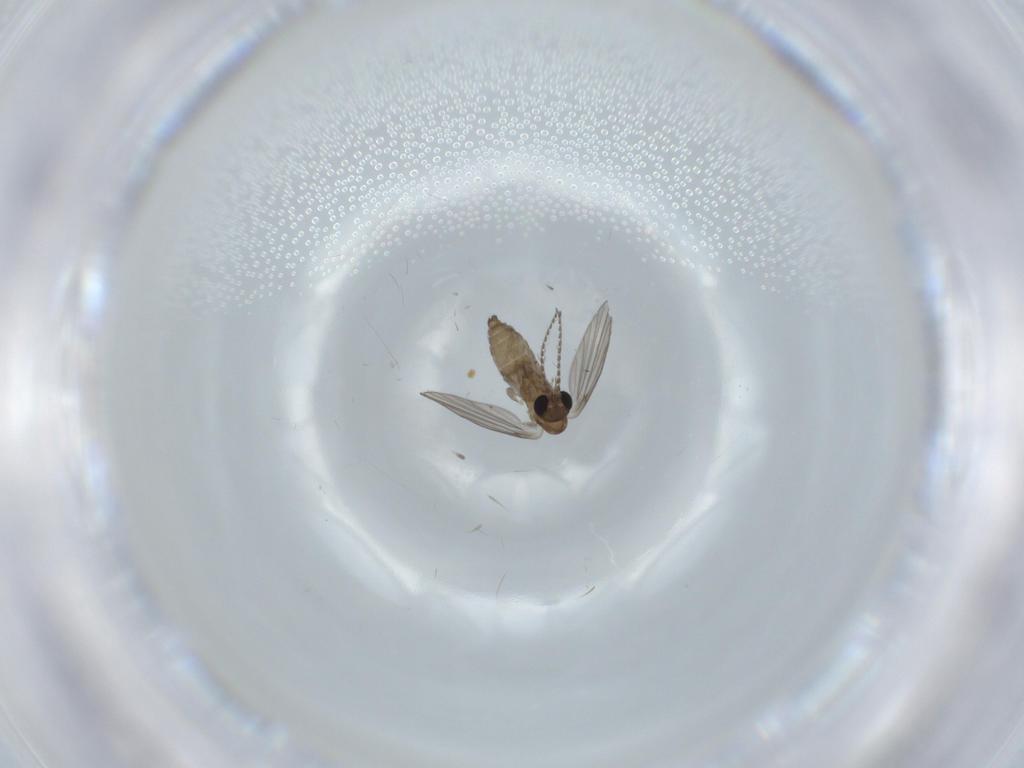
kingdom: Animalia
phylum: Arthropoda
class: Insecta
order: Diptera
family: Psychodidae
